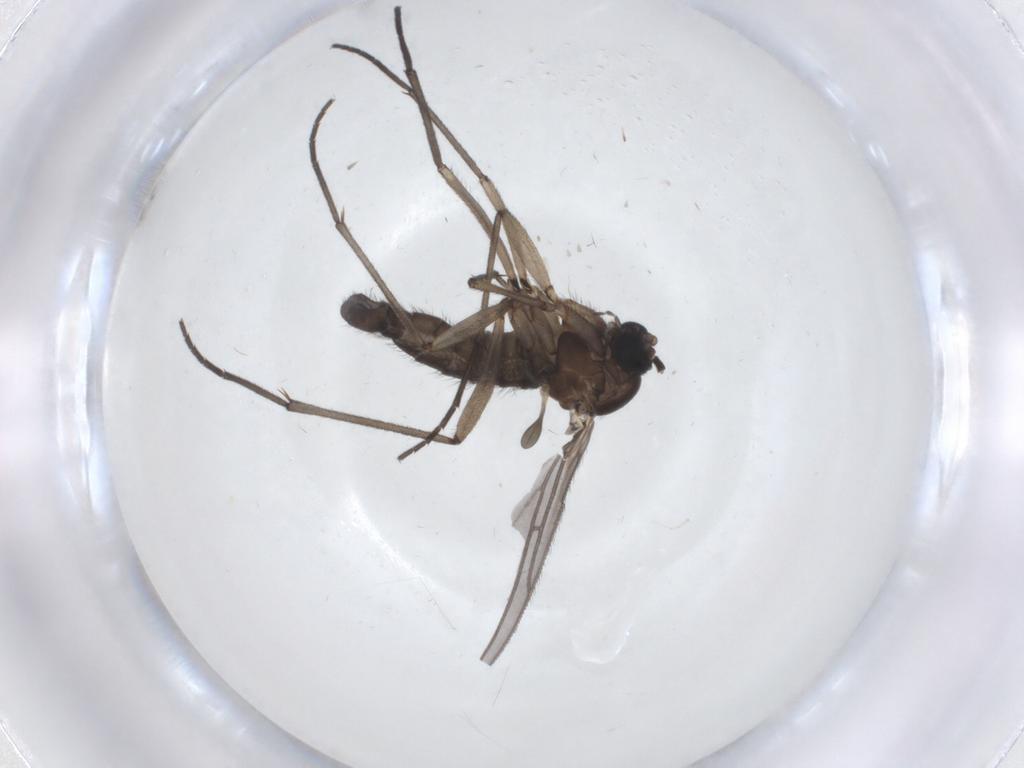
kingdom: Animalia
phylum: Arthropoda
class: Insecta
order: Diptera
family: Sciaridae
